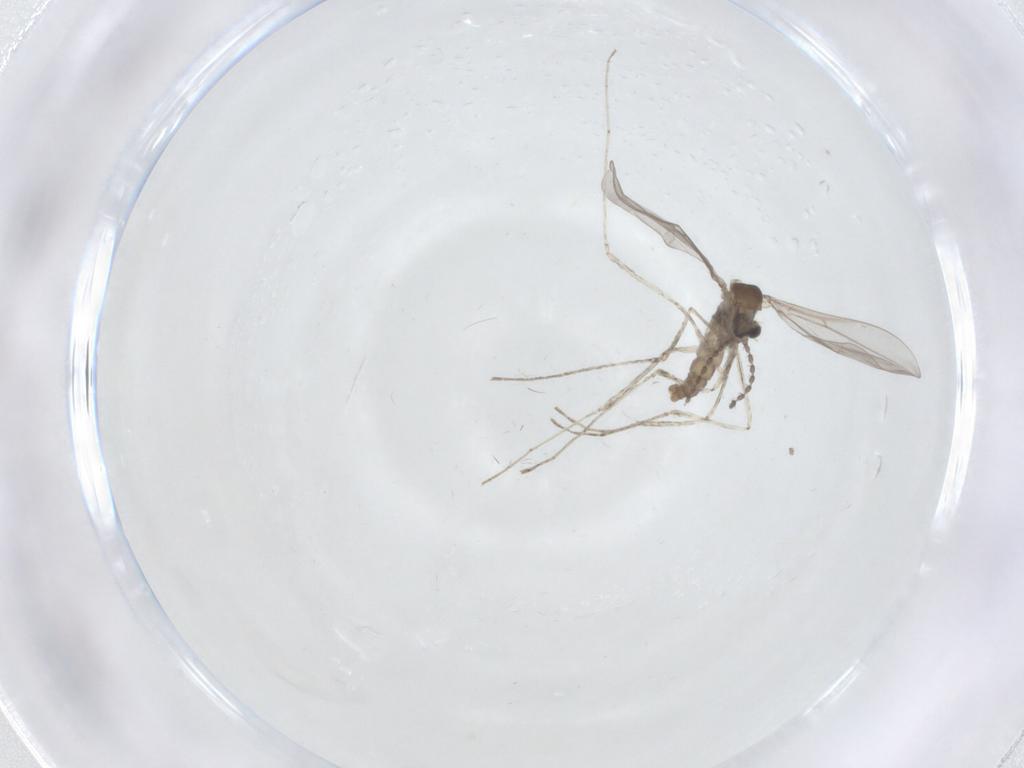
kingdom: Animalia
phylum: Arthropoda
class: Insecta
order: Diptera
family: Cecidomyiidae
